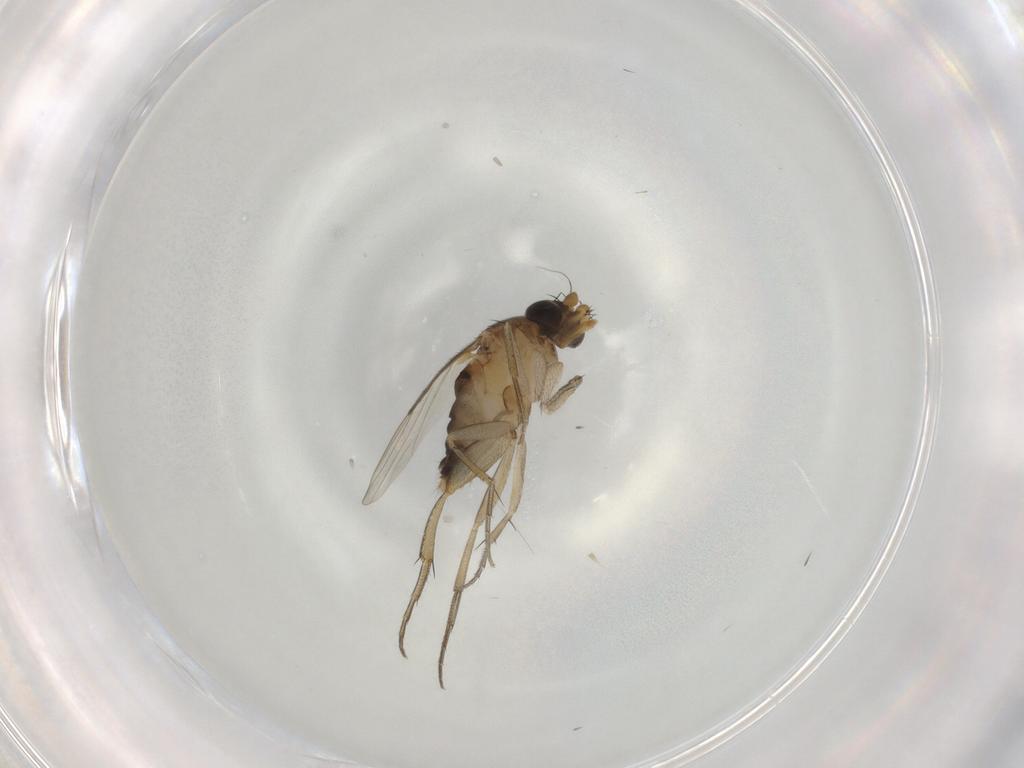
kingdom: Animalia
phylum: Arthropoda
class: Insecta
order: Diptera
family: Phoridae
